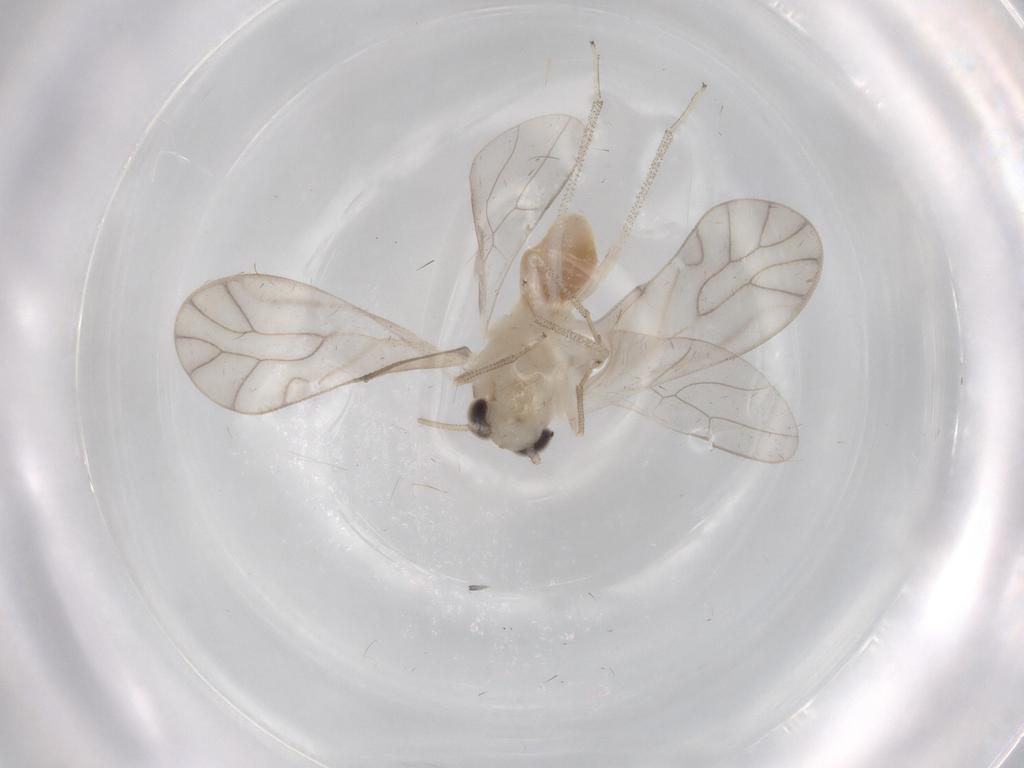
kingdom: Animalia
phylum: Arthropoda
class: Insecta
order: Psocodea
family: Caeciliusidae
